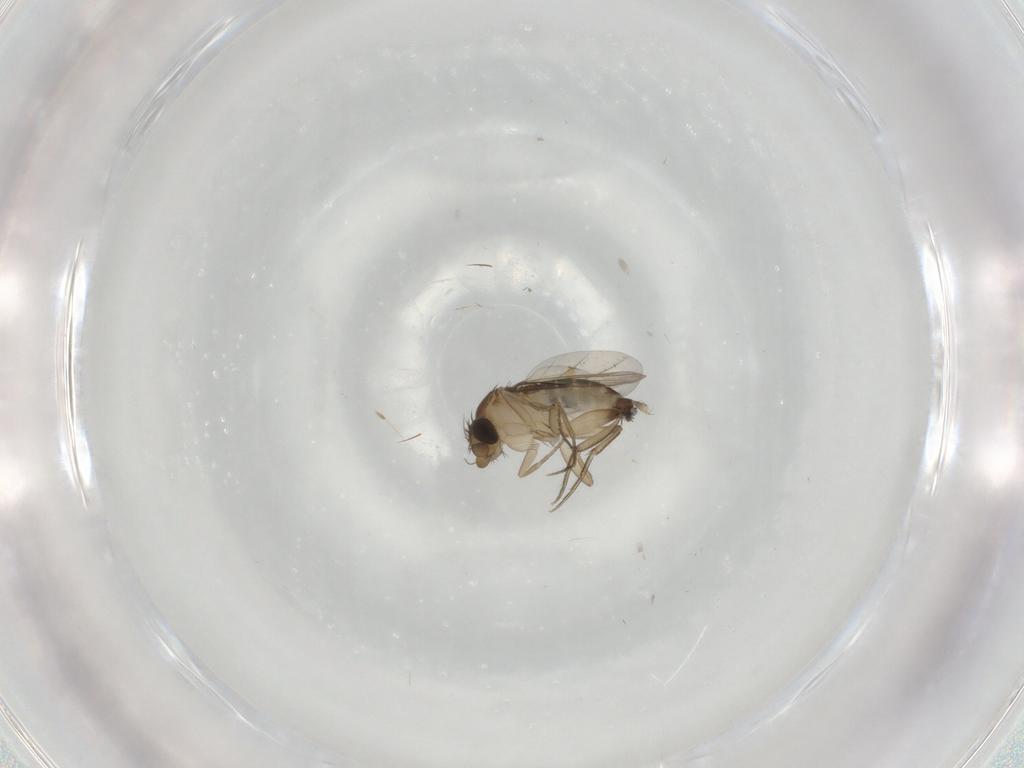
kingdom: Animalia
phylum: Arthropoda
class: Insecta
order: Diptera
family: Phoridae
